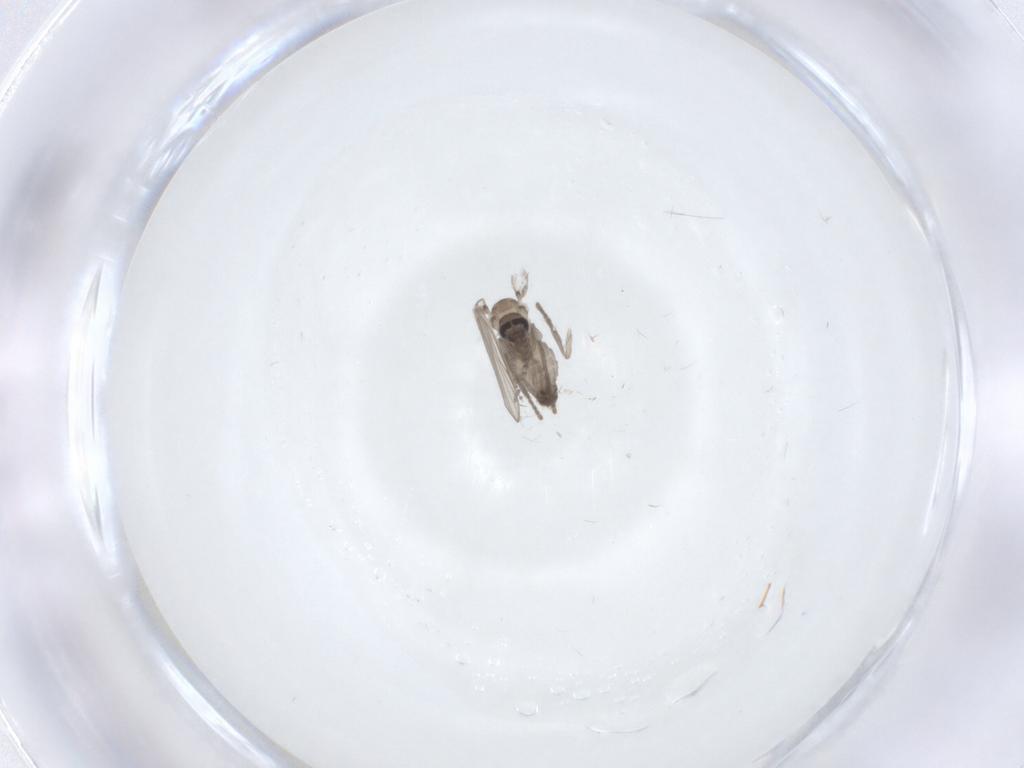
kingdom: Animalia
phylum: Arthropoda
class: Insecta
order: Diptera
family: Psychodidae
